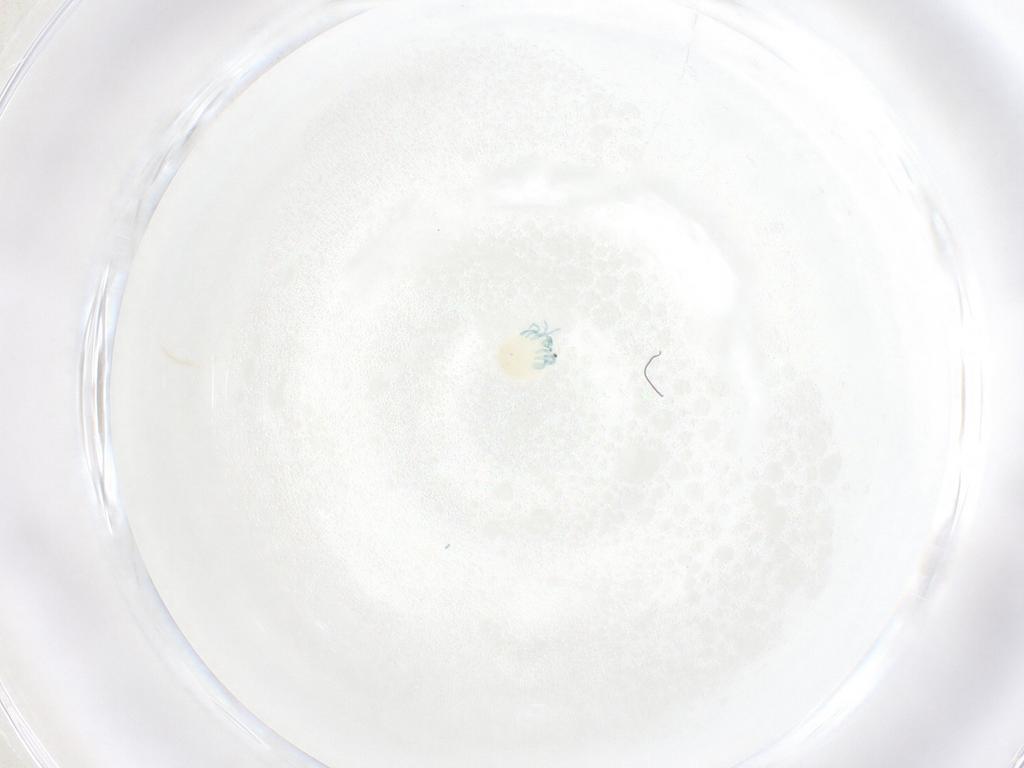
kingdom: Animalia
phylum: Arthropoda
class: Arachnida
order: Trombidiformes
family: Arrenuridae
